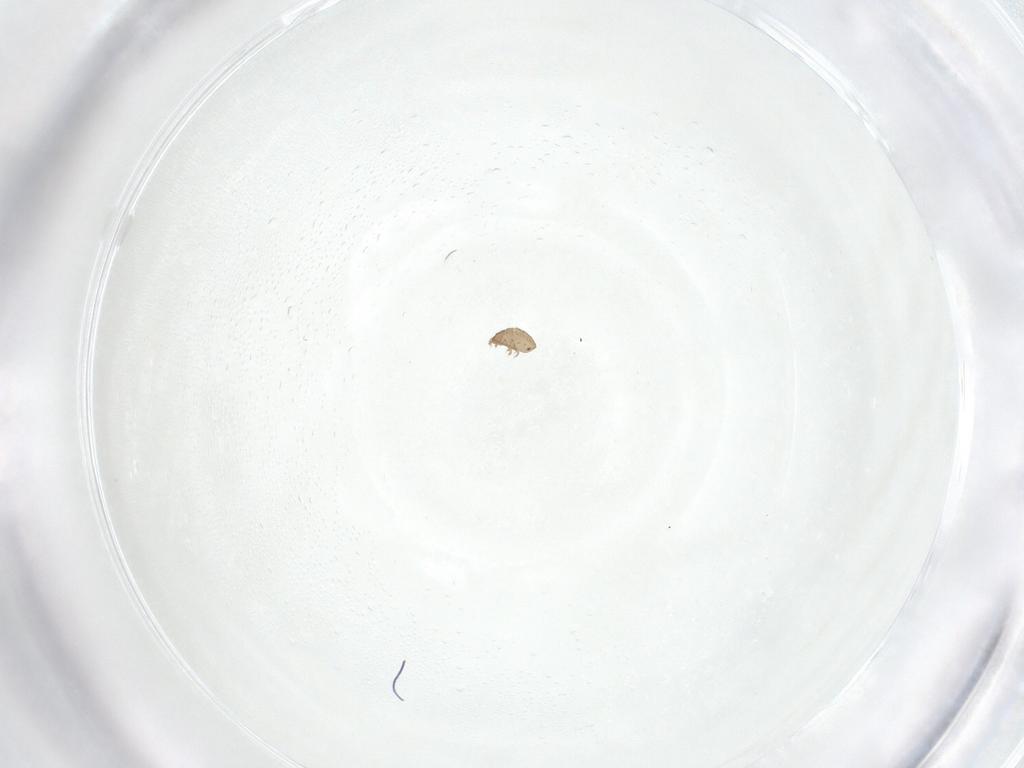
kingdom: Animalia
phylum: Arthropoda
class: Arachnida
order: Sarcoptiformes
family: Tectocepheidae
